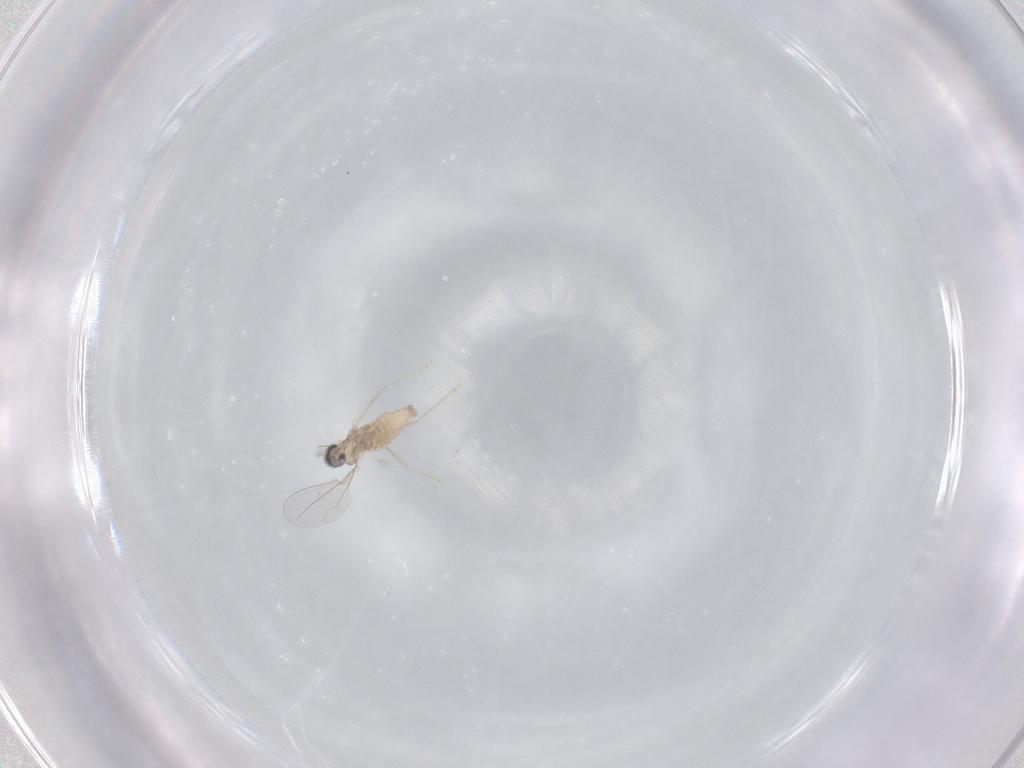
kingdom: Animalia
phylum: Arthropoda
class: Insecta
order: Diptera
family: Cecidomyiidae
